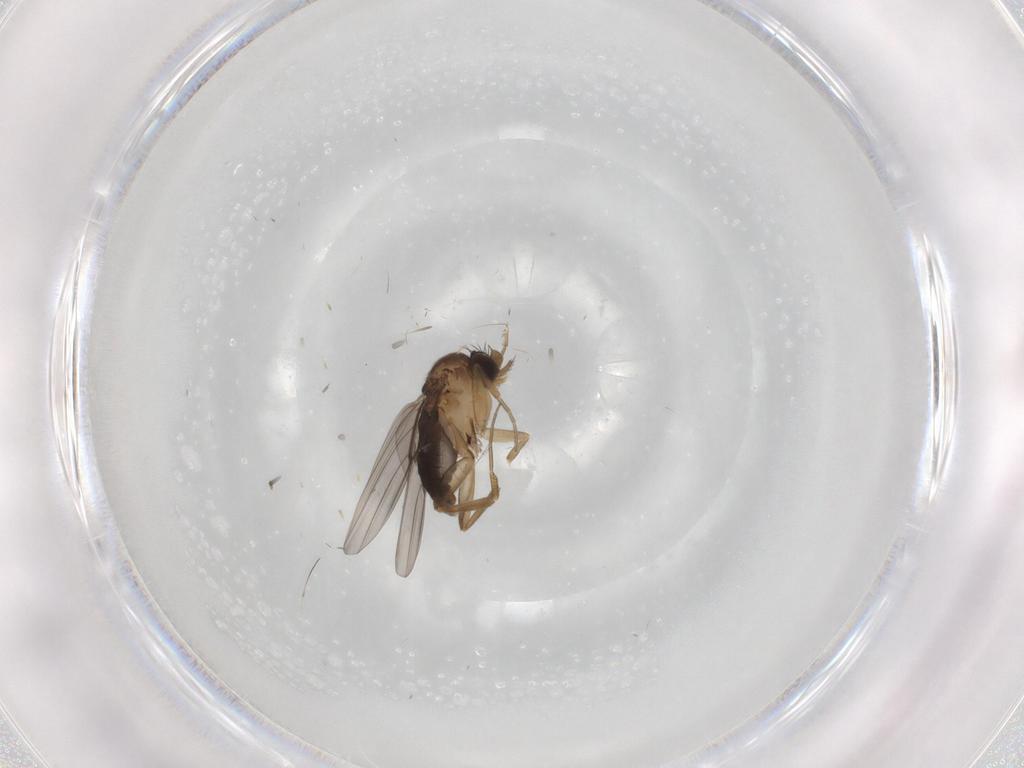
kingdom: Animalia
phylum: Arthropoda
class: Insecta
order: Diptera
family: Phoridae
